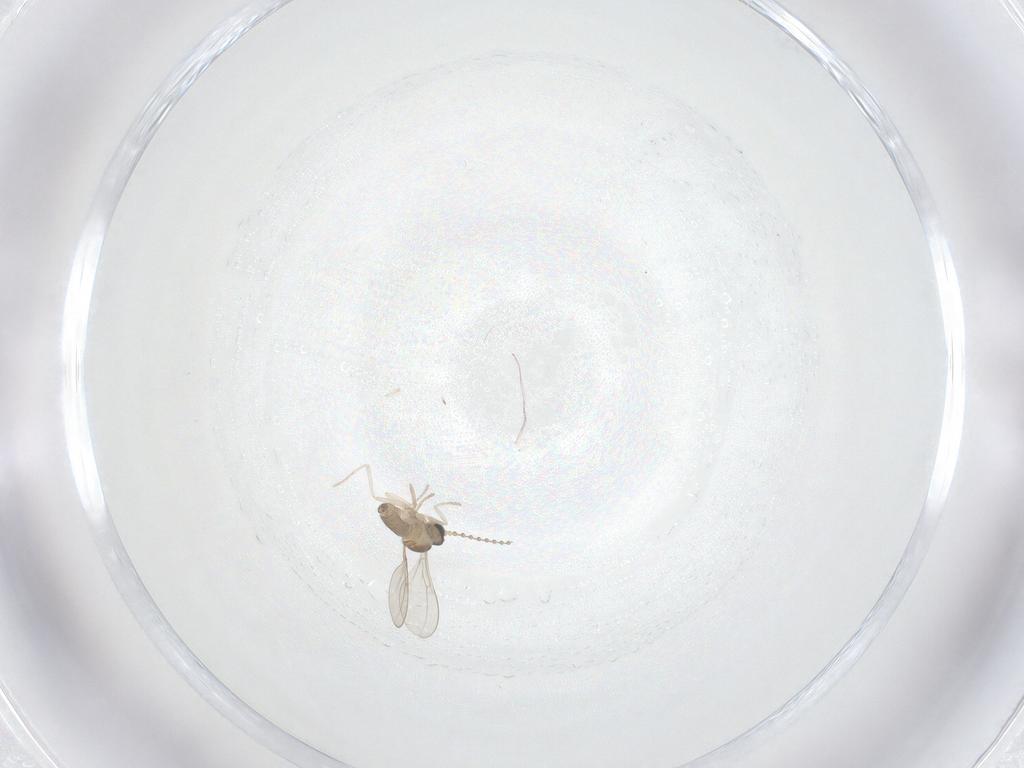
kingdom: Animalia
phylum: Arthropoda
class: Insecta
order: Diptera
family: Cecidomyiidae
